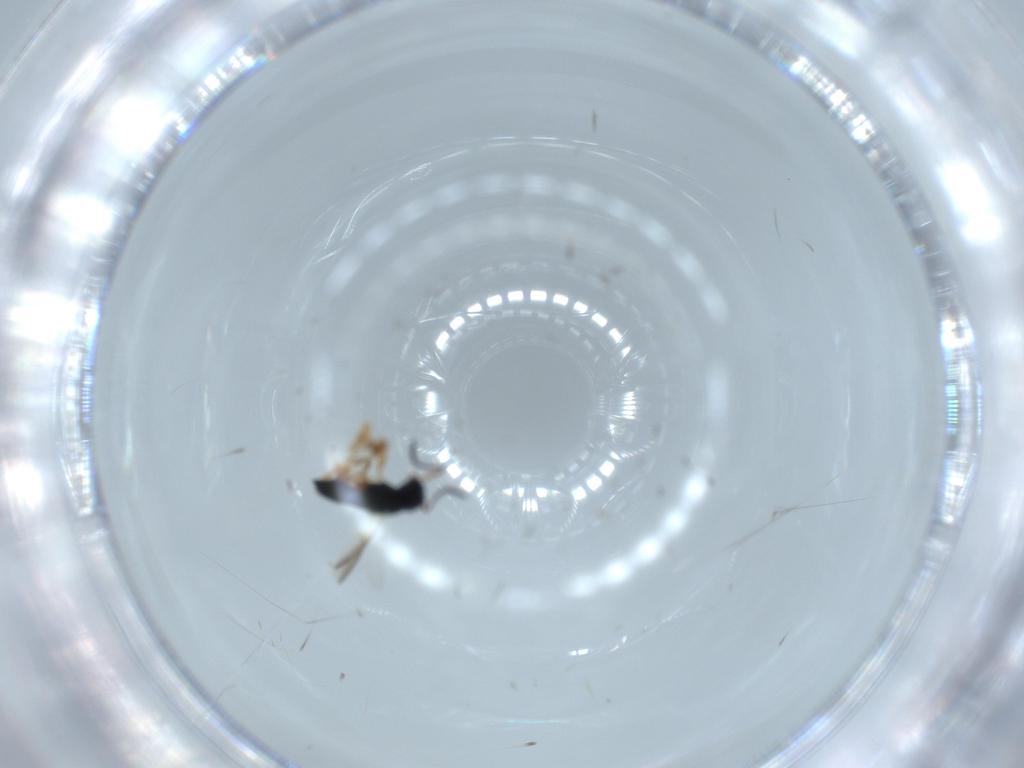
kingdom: Animalia
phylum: Arthropoda
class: Insecta
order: Hymenoptera
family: Scelionidae
